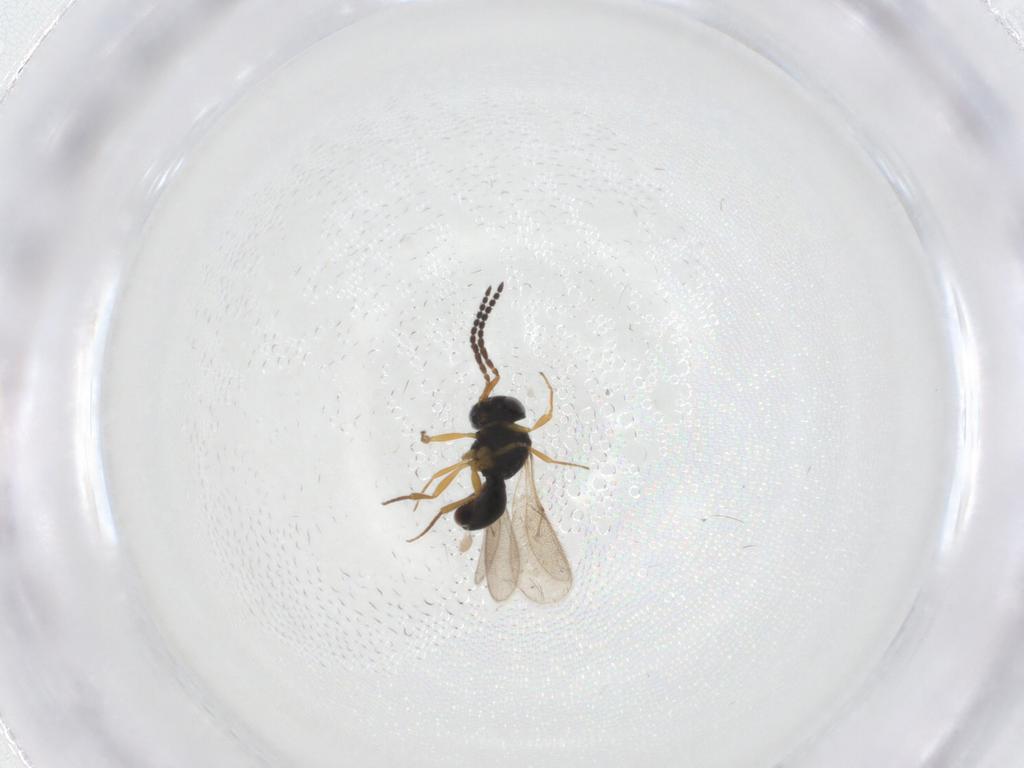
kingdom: Animalia
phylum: Arthropoda
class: Insecta
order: Hymenoptera
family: Scelionidae
